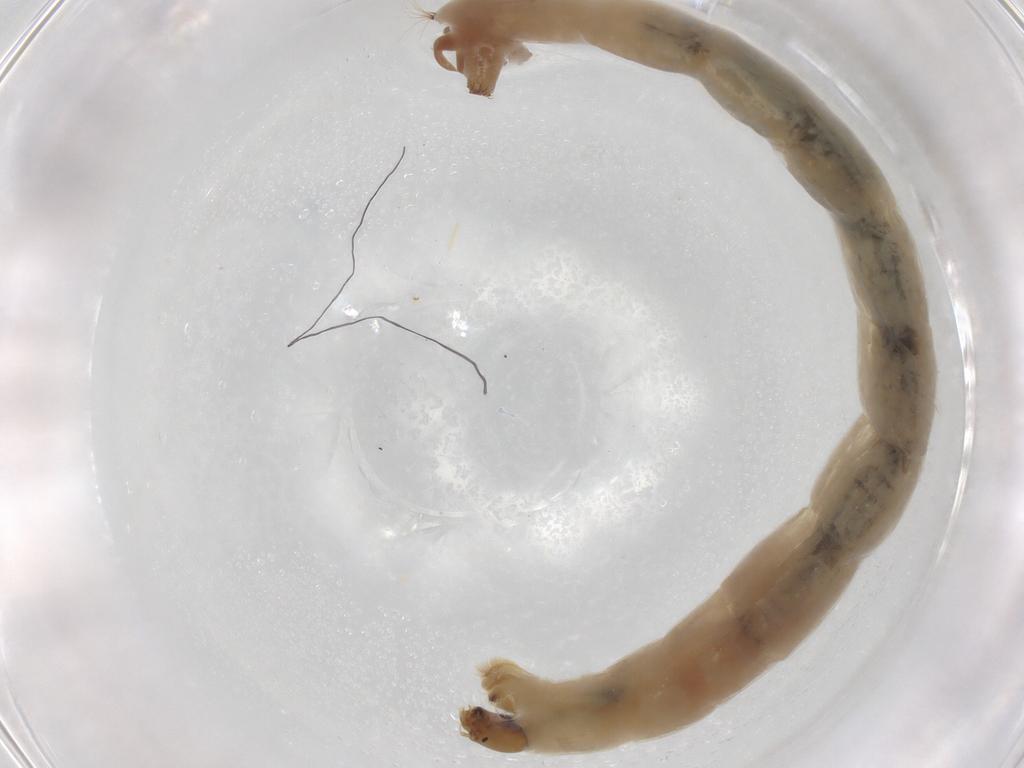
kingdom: Animalia
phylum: Arthropoda
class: Insecta
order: Diptera
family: Chironomidae
